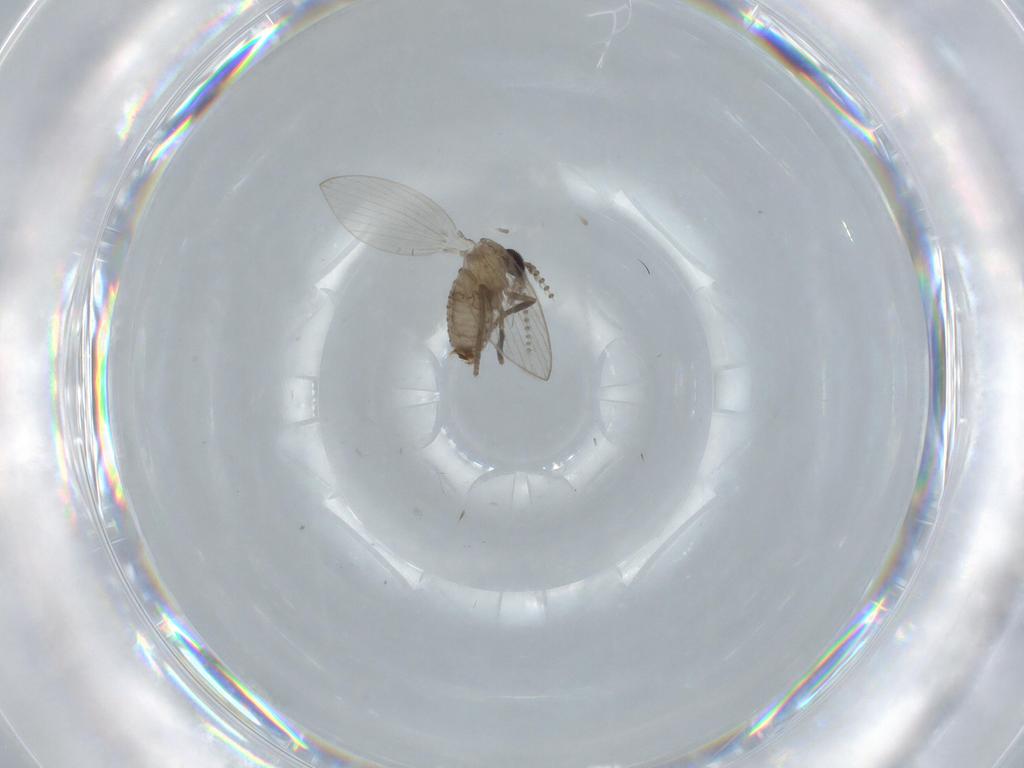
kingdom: Animalia
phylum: Arthropoda
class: Insecta
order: Diptera
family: Psychodidae
